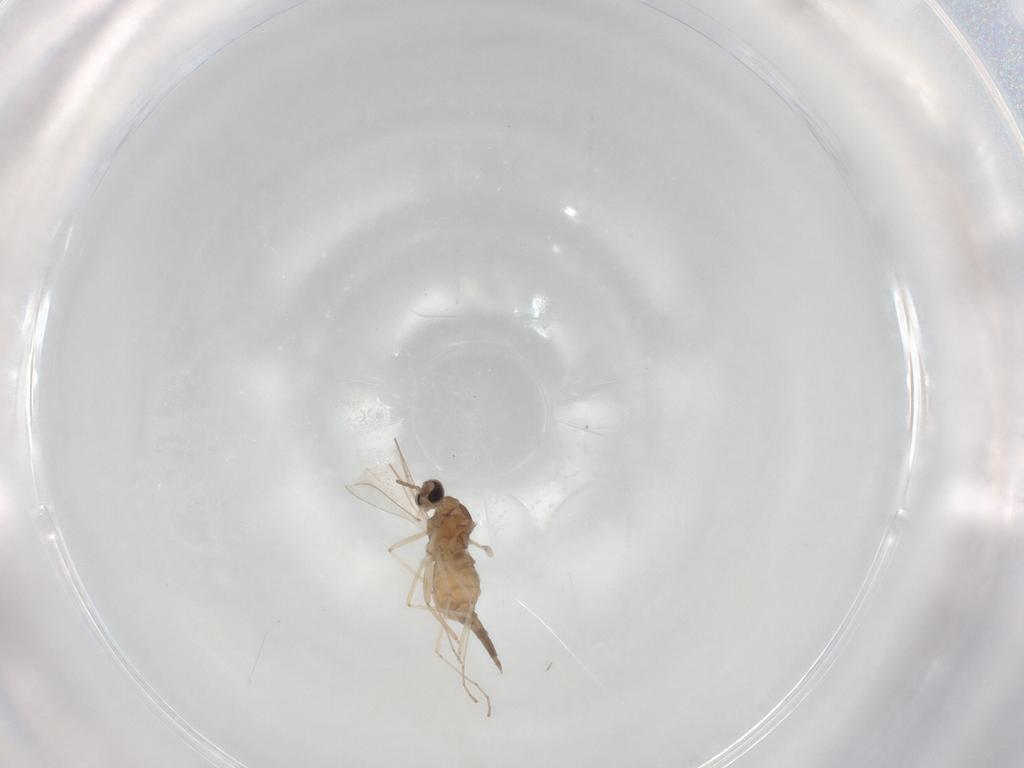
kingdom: Animalia
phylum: Arthropoda
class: Insecta
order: Diptera
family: Cecidomyiidae
